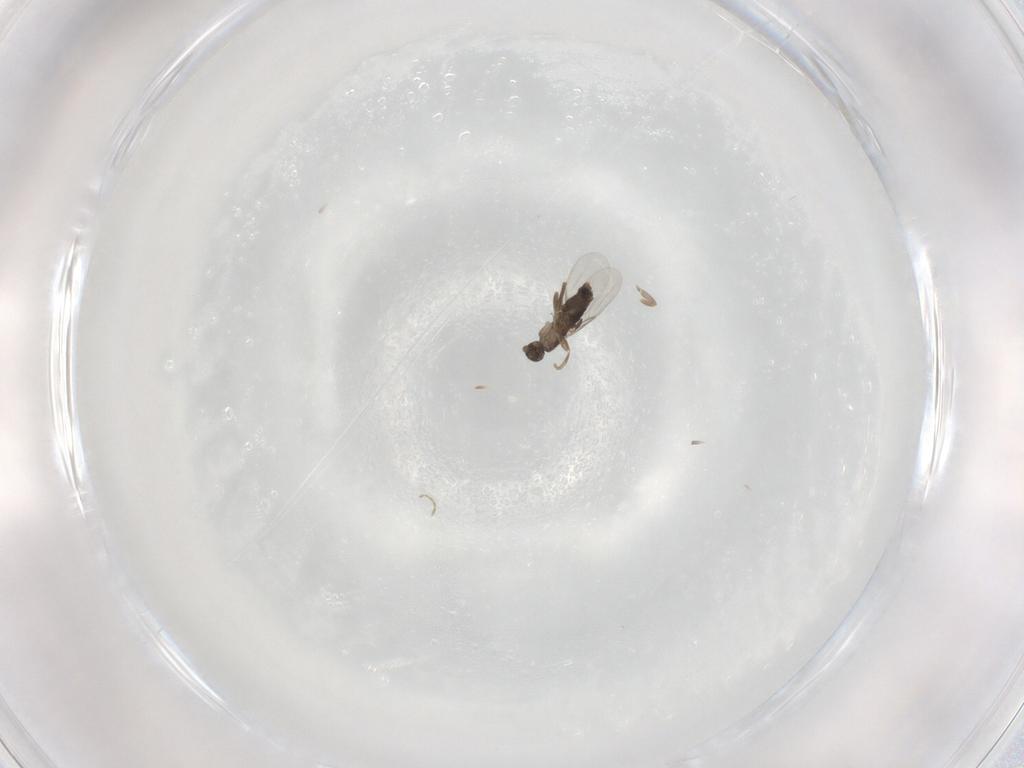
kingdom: Animalia
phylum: Arthropoda
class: Insecta
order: Diptera
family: Phoridae
